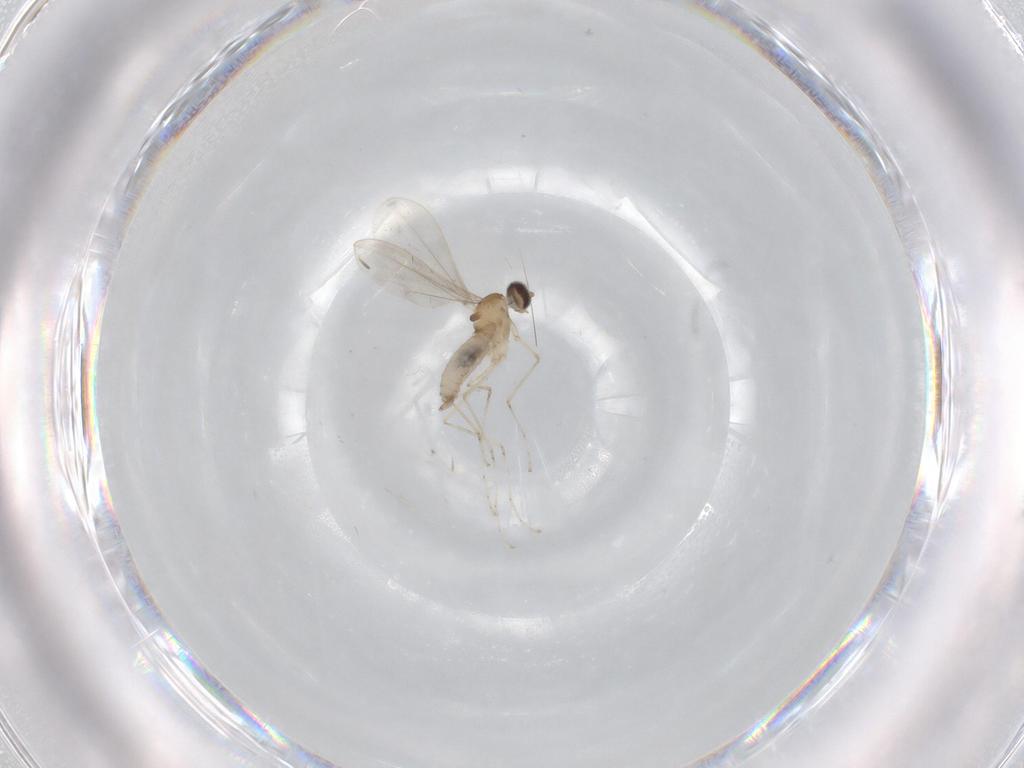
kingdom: Animalia
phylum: Arthropoda
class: Insecta
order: Diptera
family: Cecidomyiidae
